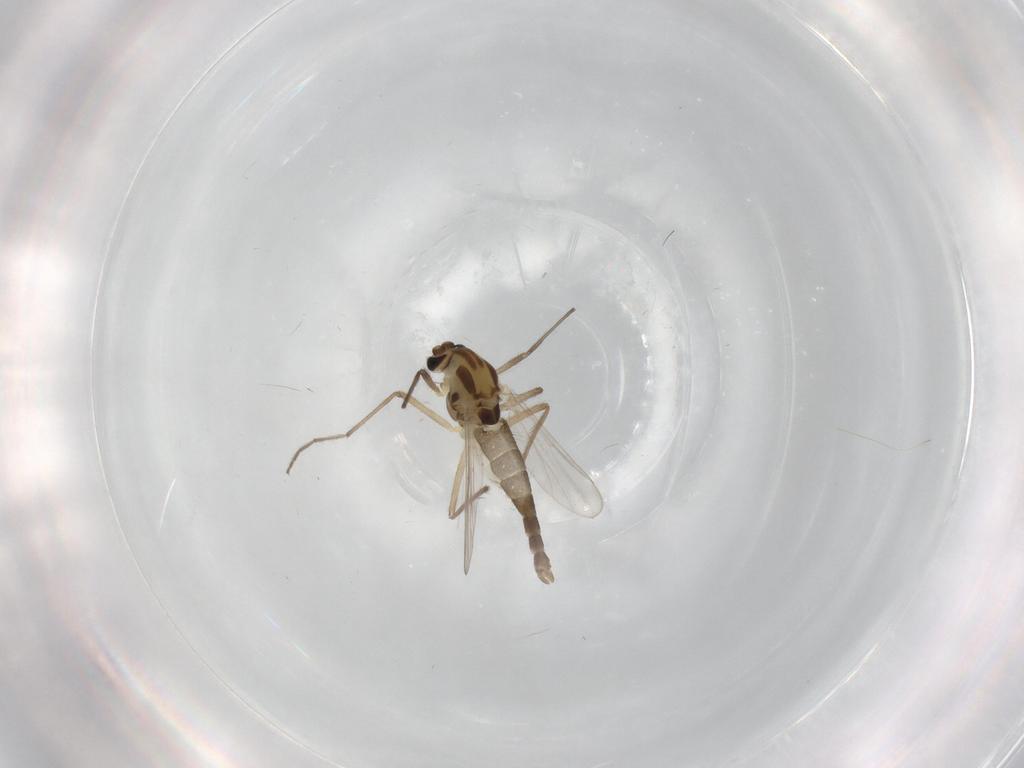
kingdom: Animalia
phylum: Arthropoda
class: Insecta
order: Diptera
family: Chironomidae
